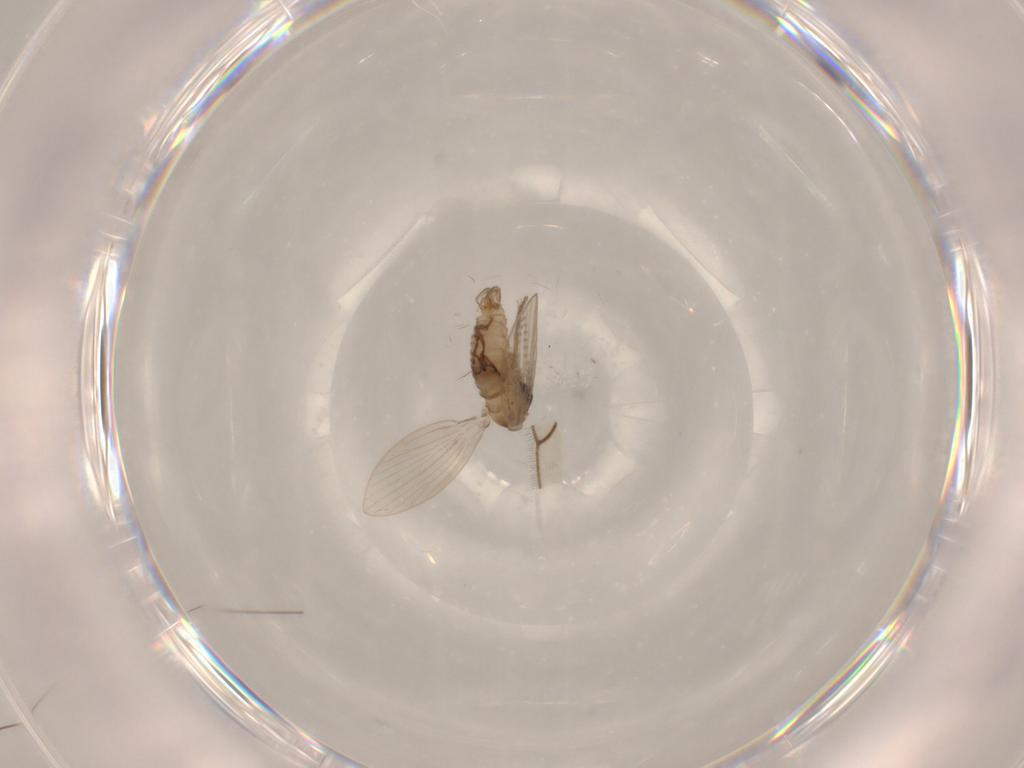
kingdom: Animalia
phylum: Arthropoda
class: Insecta
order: Diptera
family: Psychodidae
